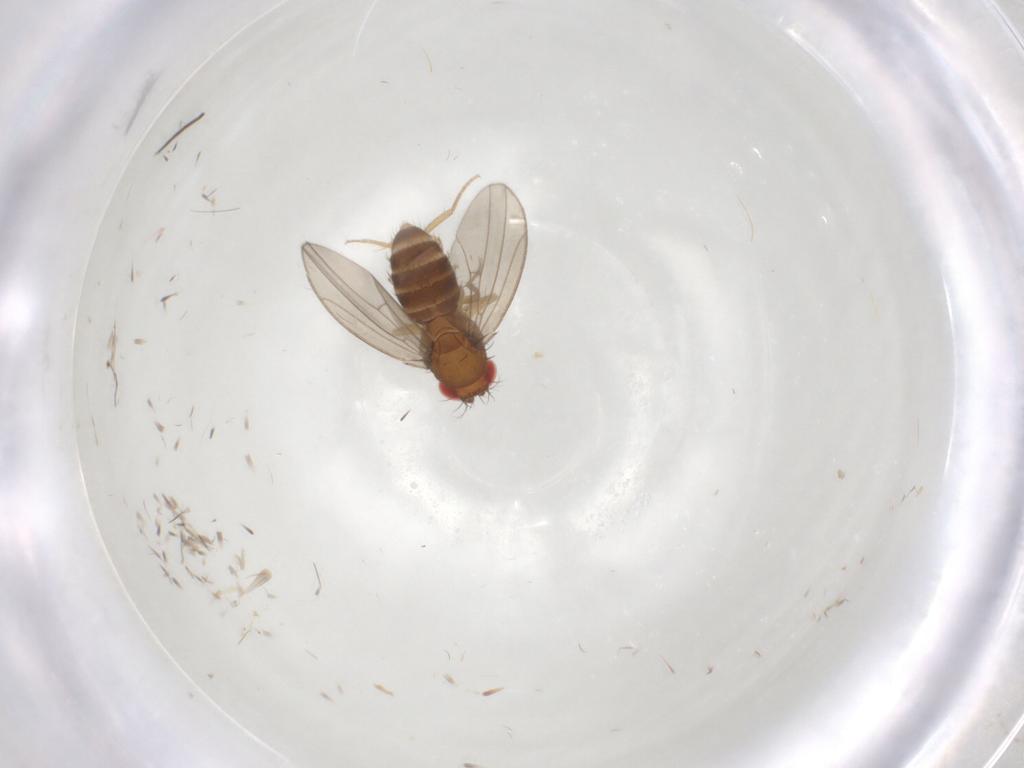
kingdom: Animalia
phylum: Arthropoda
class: Insecta
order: Diptera
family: Drosophilidae
